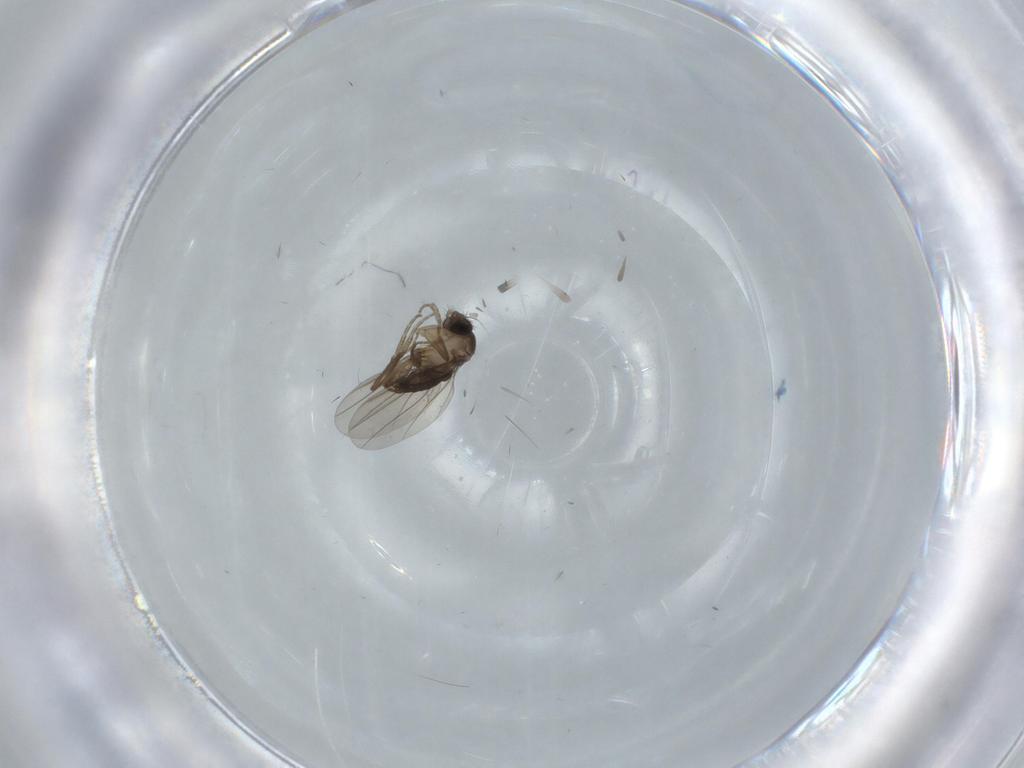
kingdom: Animalia
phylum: Arthropoda
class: Insecta
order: Diptera
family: Phoridae
